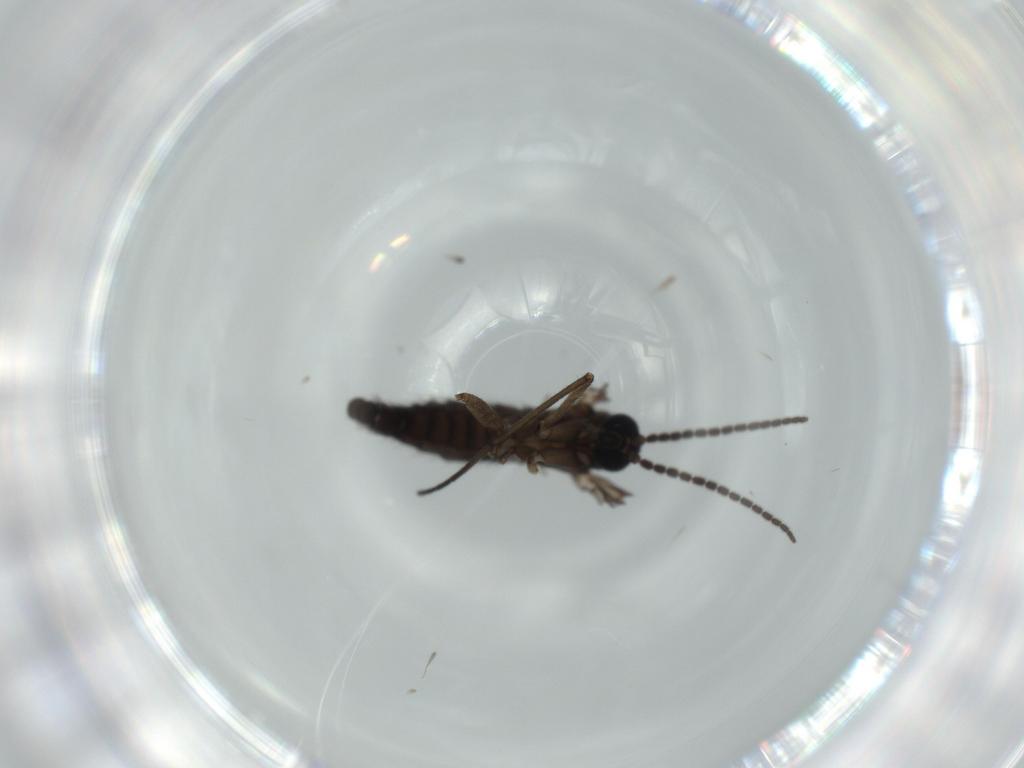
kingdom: Animalia
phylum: Arthropoda
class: Insecta
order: Diptera
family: Sciaridae
